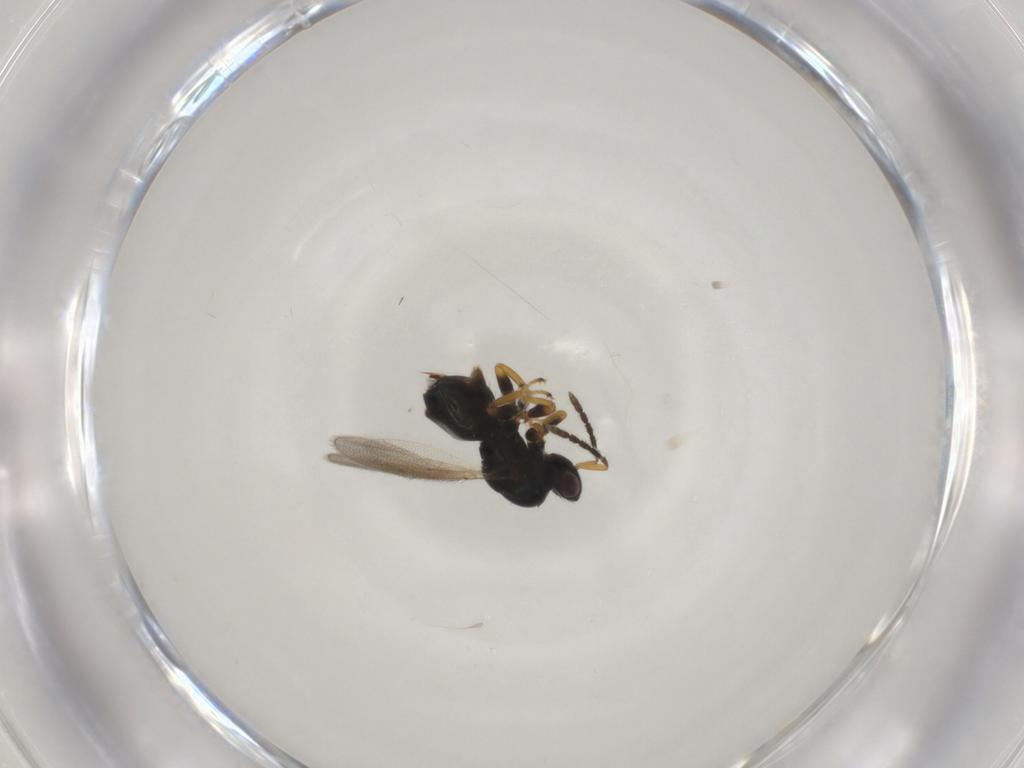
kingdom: Animalia
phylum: Arthropoda
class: Insecta
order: Hymenoptera
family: Eulophidae
